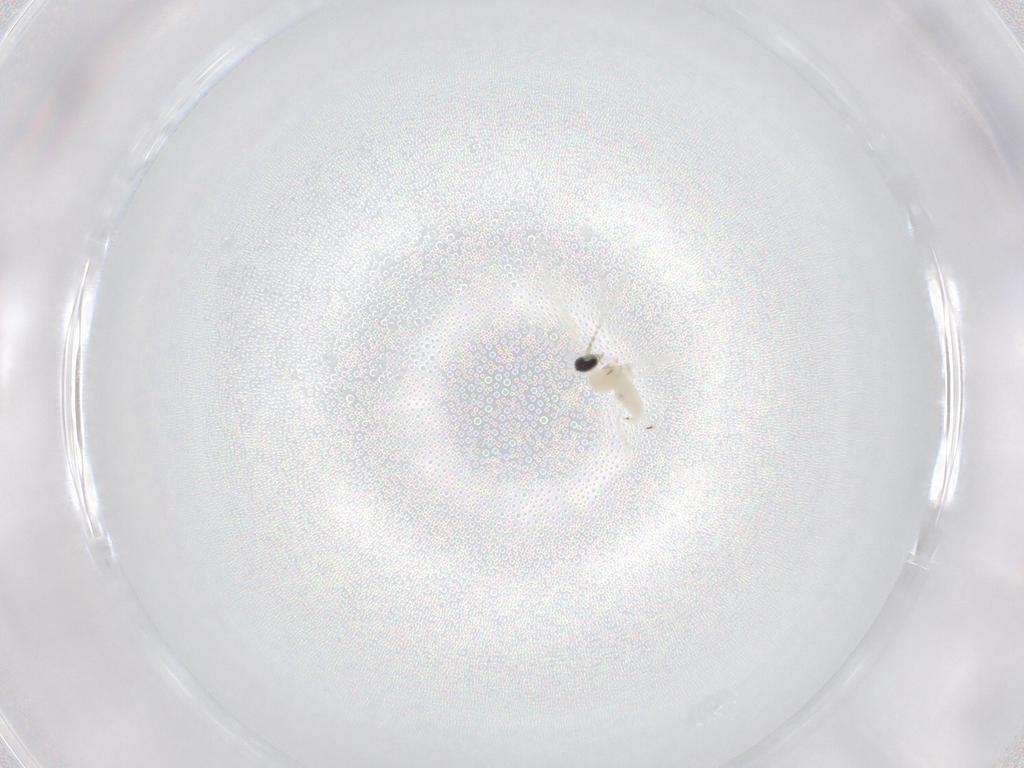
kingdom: Animalia
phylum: Arthropoda
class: Insecta
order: Diptera
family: Cecidomyiidae
